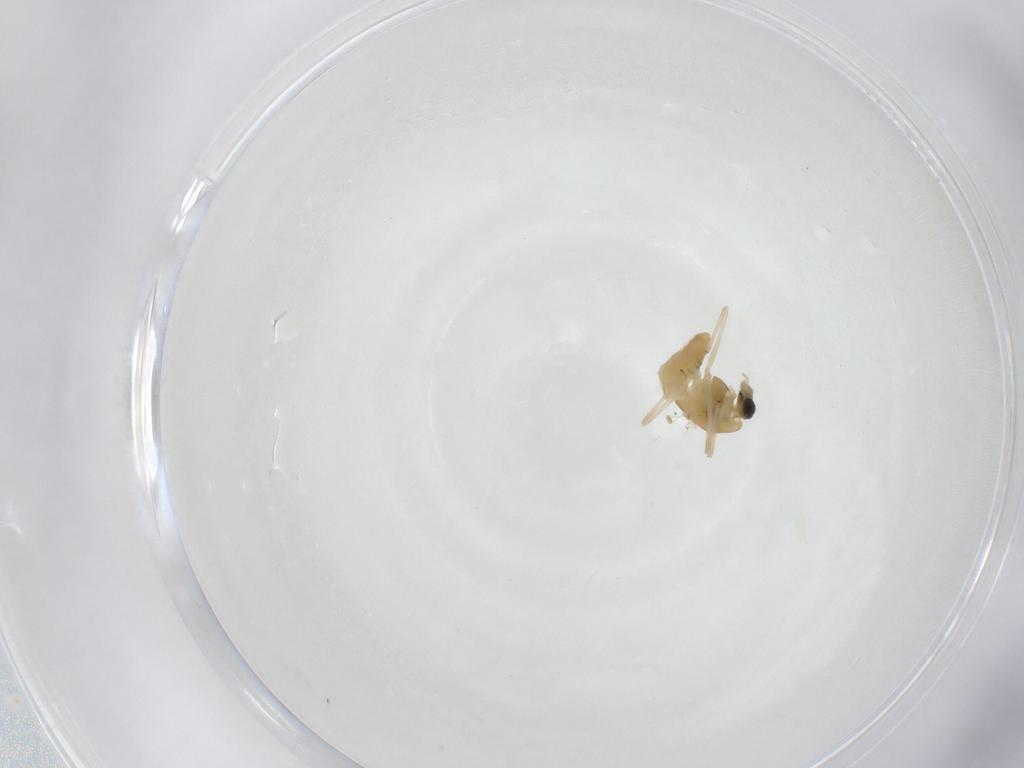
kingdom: Animalia
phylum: Arthropoda
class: Insecta
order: Diptera
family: Chironomidae
